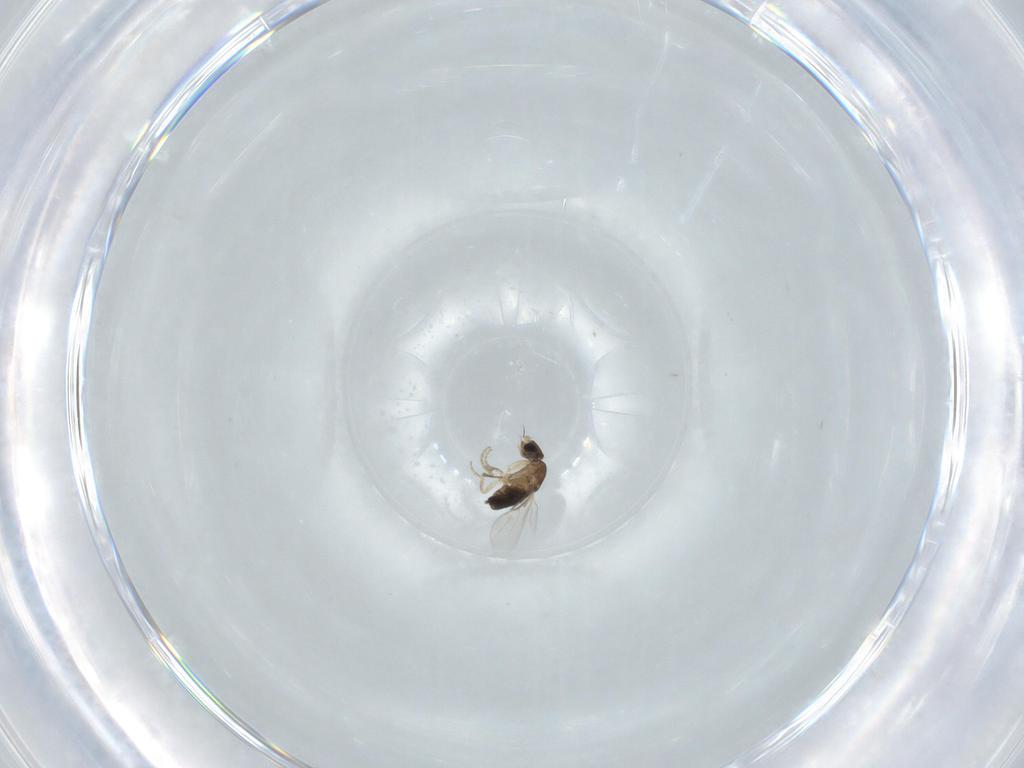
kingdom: Animalia
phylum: Arthropoda
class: Insecta
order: Diptera
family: Phoridae
